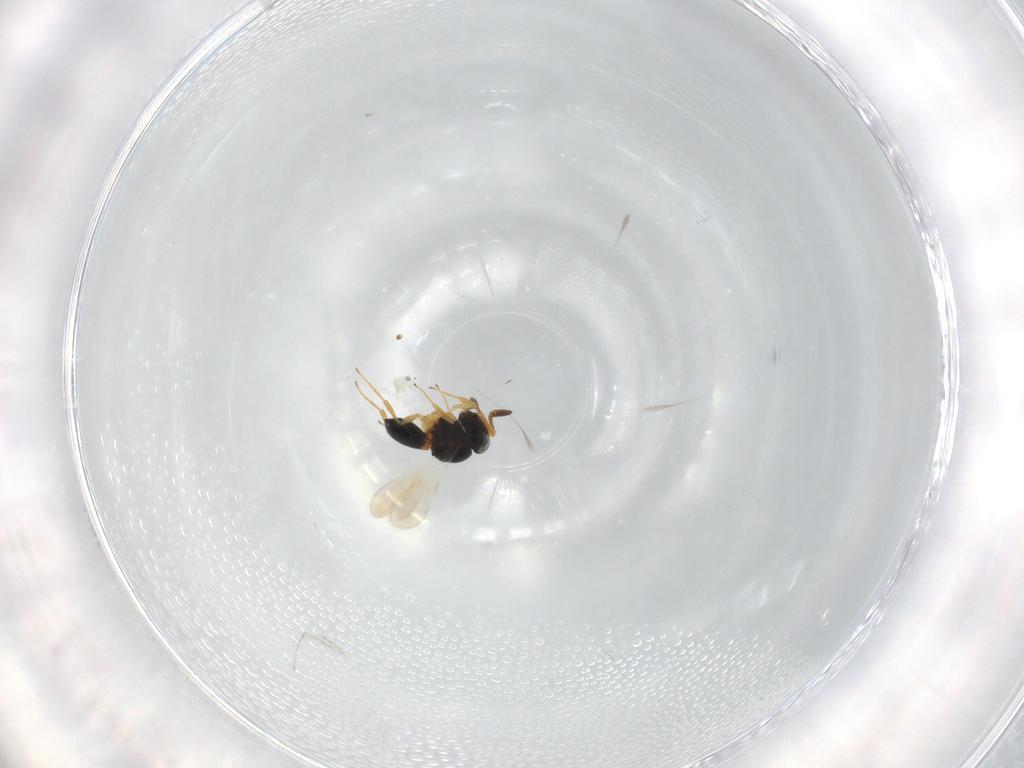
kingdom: Animalia
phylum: Arthropoda
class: Insecta
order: Hymenoptera
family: Scelionidae
